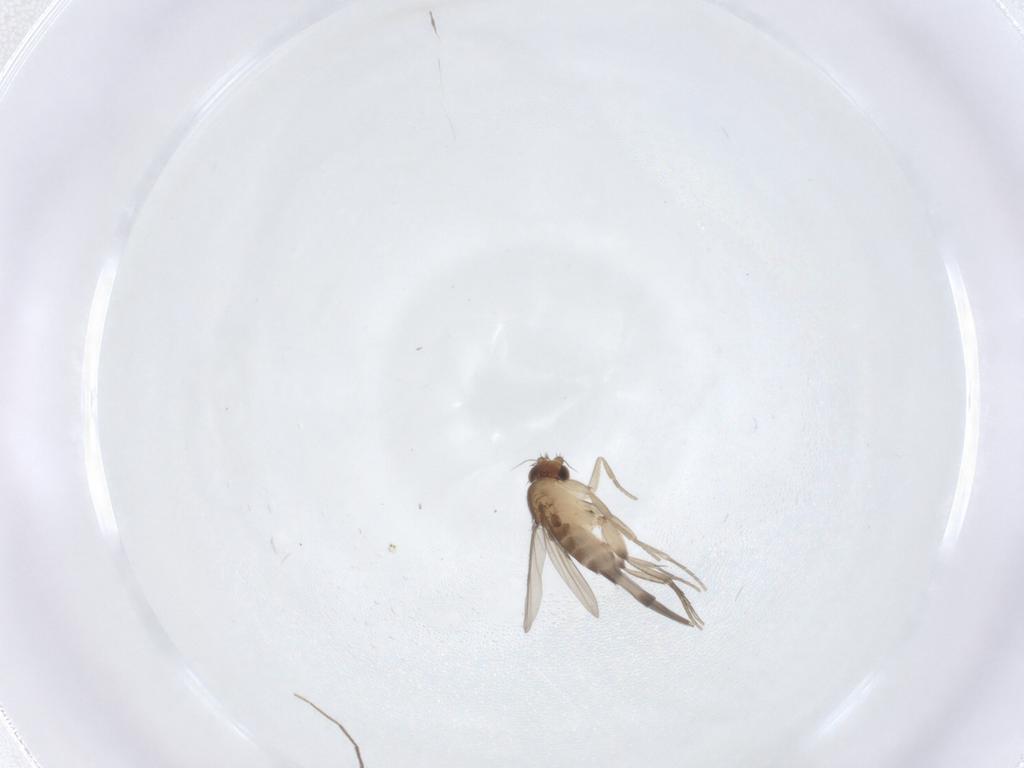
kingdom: Animalia
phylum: Arthropoda
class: Insecta
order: Diptera
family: Phoridae
